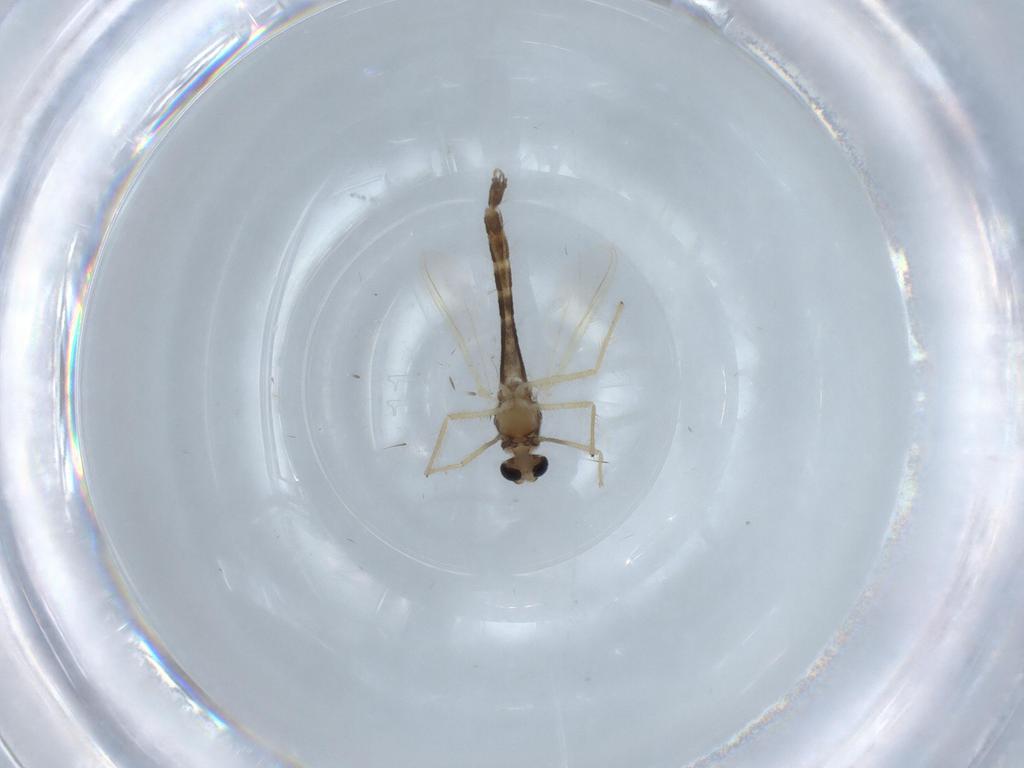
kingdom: Animalia
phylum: Arthropoda
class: Insecta
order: Diptera
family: Chironomidae
